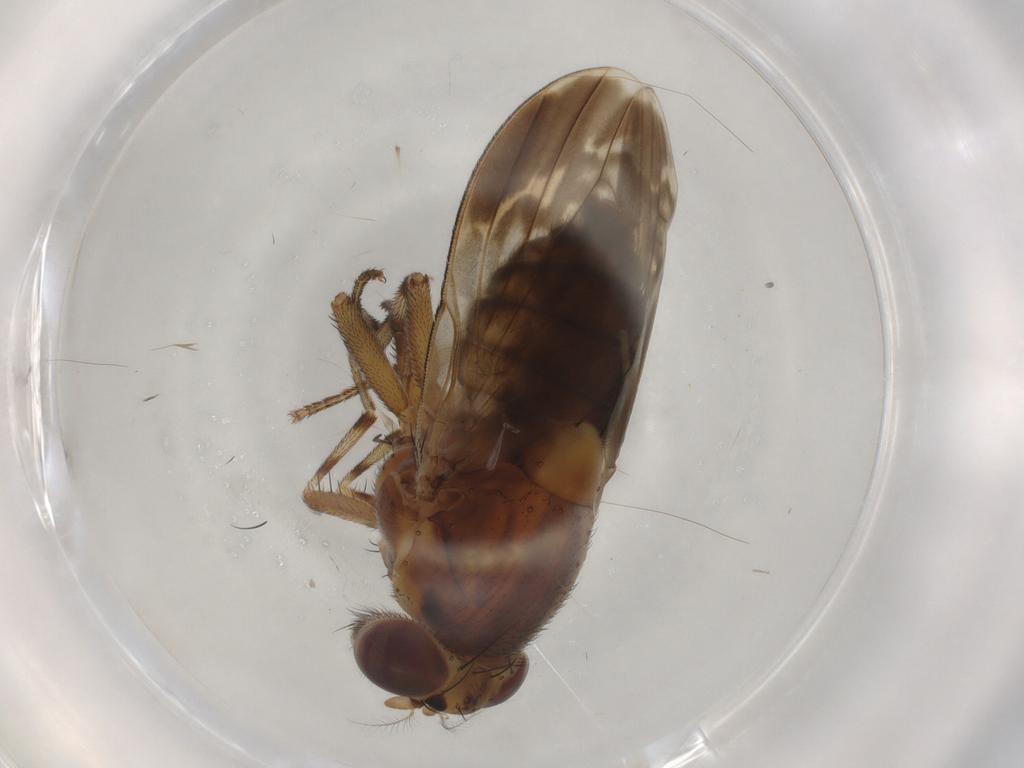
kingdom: Animalia
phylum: Arthropoda
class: Insecta
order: Diptera
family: Lauxaniidae
